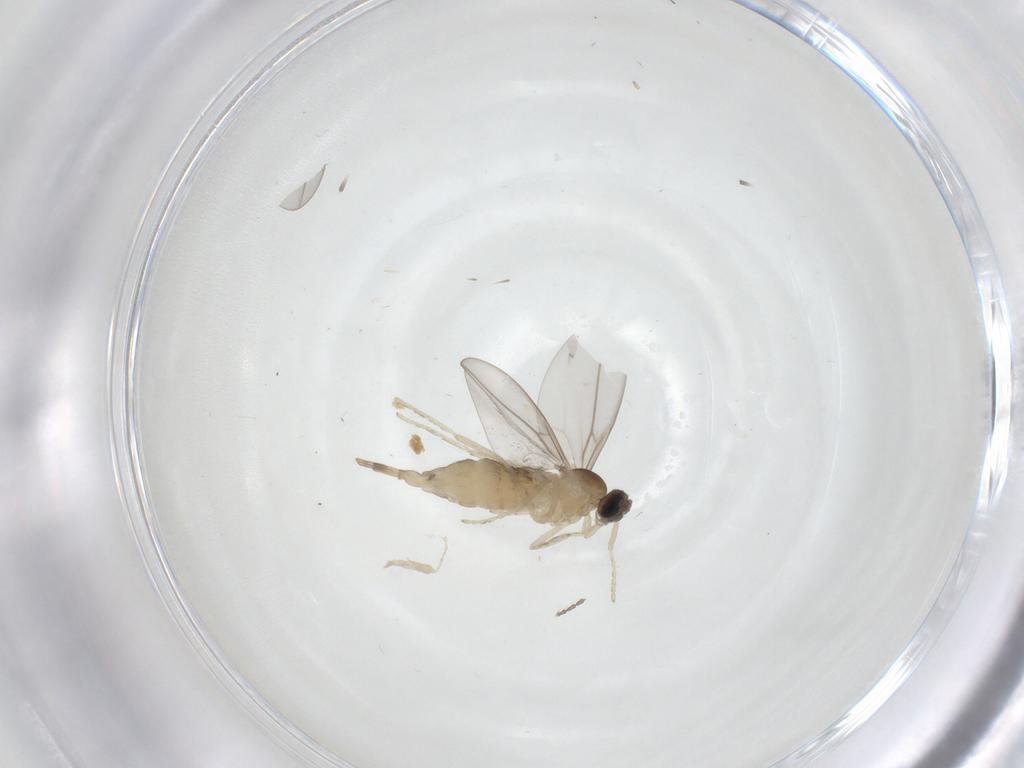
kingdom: Animalia
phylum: Arthropoda
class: Insecta
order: Diptera
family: Cecidomyiidae
